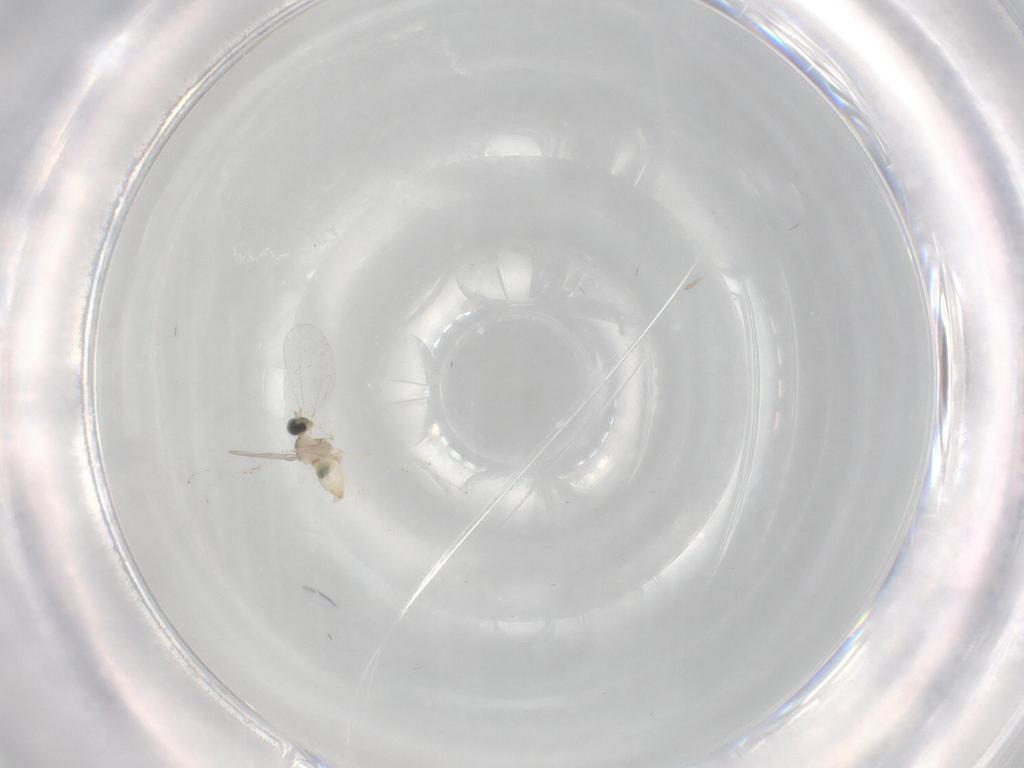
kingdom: Animalia
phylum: Arthropoda
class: Insecta
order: Diptera
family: Cecidomyiidae
